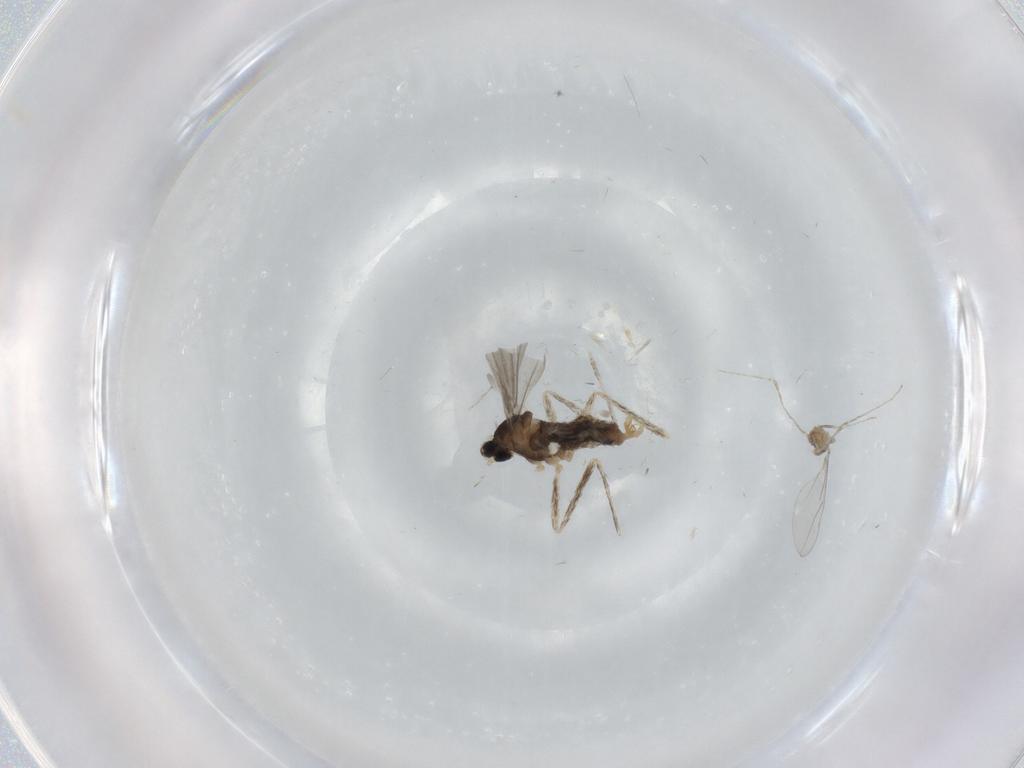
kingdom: Animalia
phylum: Arthropoda
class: Insecta
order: Diptera
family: Cecidomyiidae
